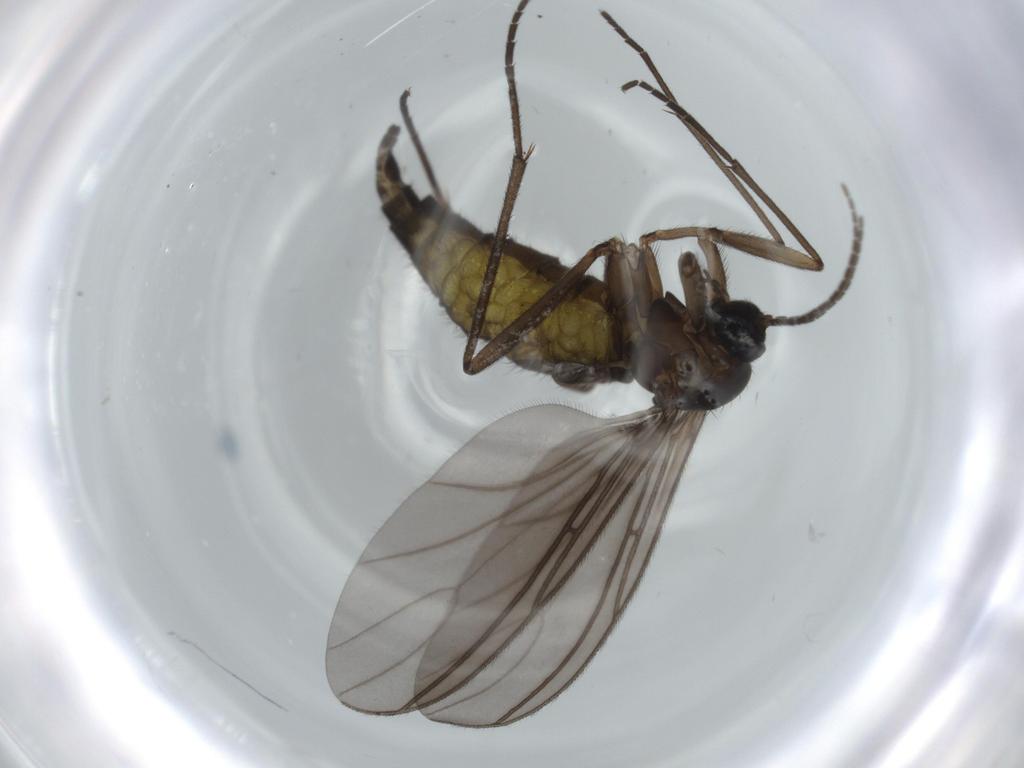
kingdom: Animalia
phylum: Arthropoda
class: Insecta
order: Diptera
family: Sciaridae
